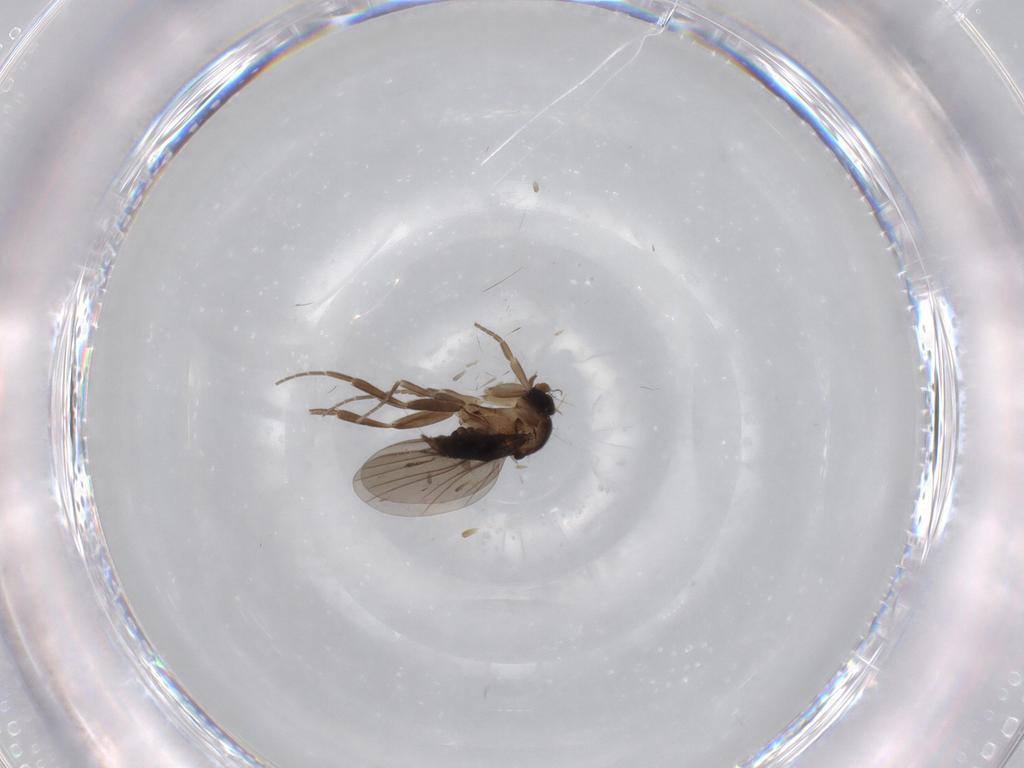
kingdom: Animalia
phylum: Arthropoda
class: Insecta
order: Diptera
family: Phoridae
